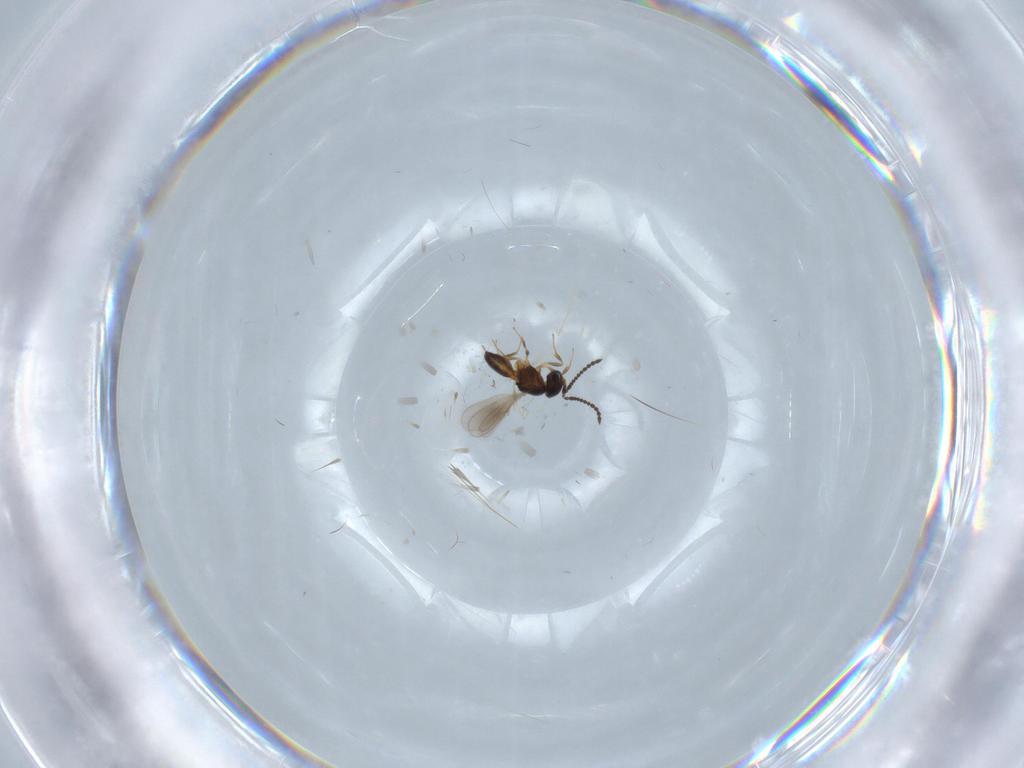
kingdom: Animalia
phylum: Arthropoda
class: Insecta
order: Hymenoptera
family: Scelionidae
